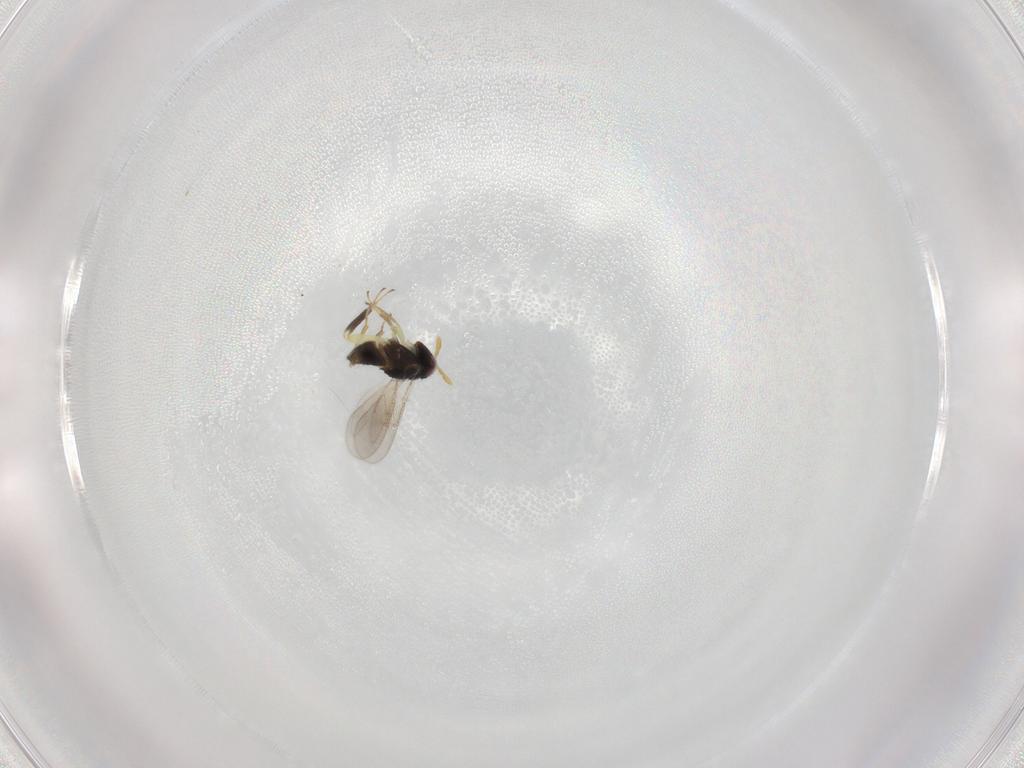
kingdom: Animalia
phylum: Arthropoda
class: Insecta
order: Hymenoptera
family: Aphelinidae
